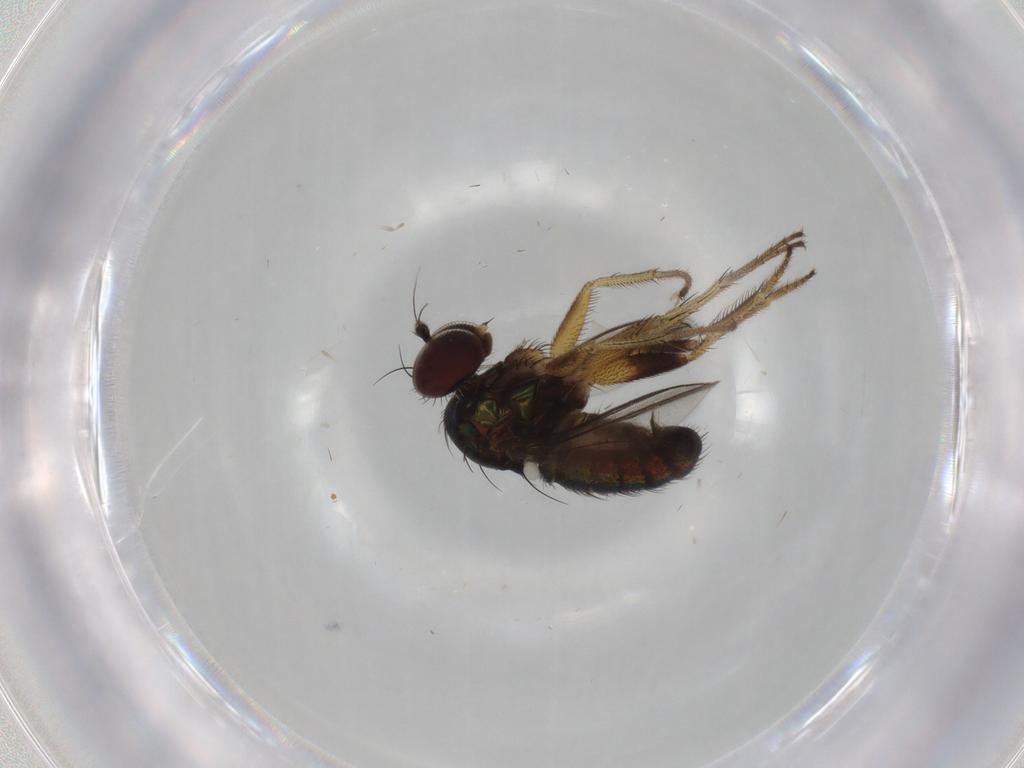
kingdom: Animalia
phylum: Arthropoda
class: Insecta
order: Diptera
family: Dolichopodidae
